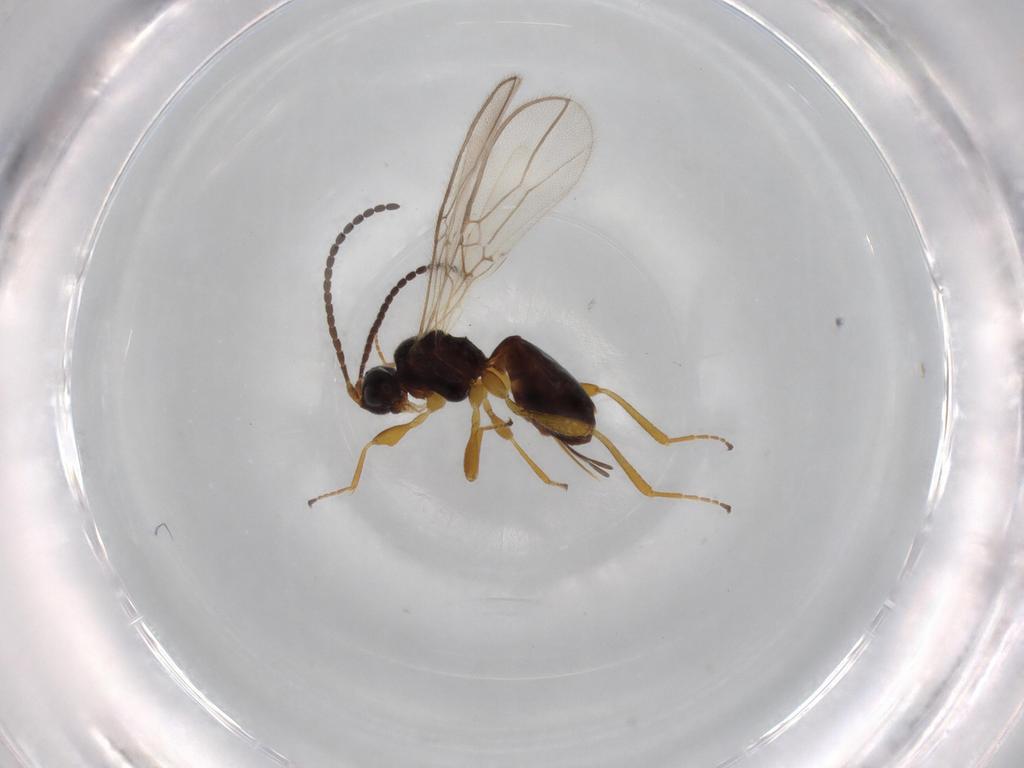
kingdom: Animalia
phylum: Arthropoda
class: Insecta
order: Hymenoptera
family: Braconidae
